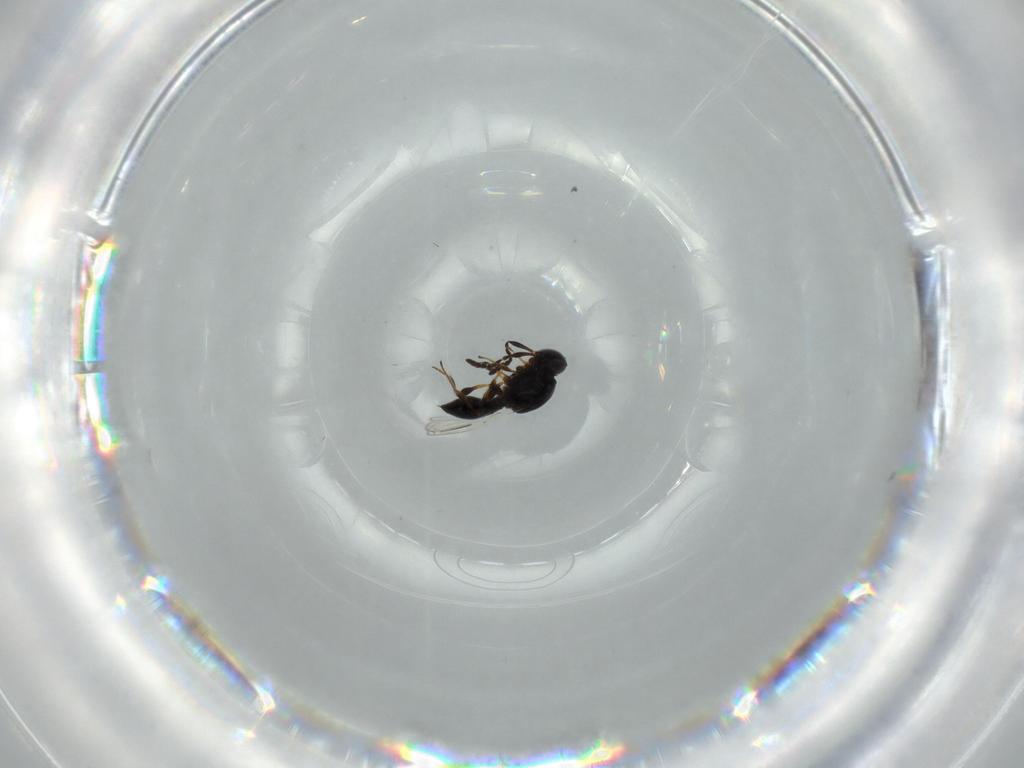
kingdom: Animalia
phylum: Arthropoda
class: Insecta
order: Hymenoptera
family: Platygastridae
